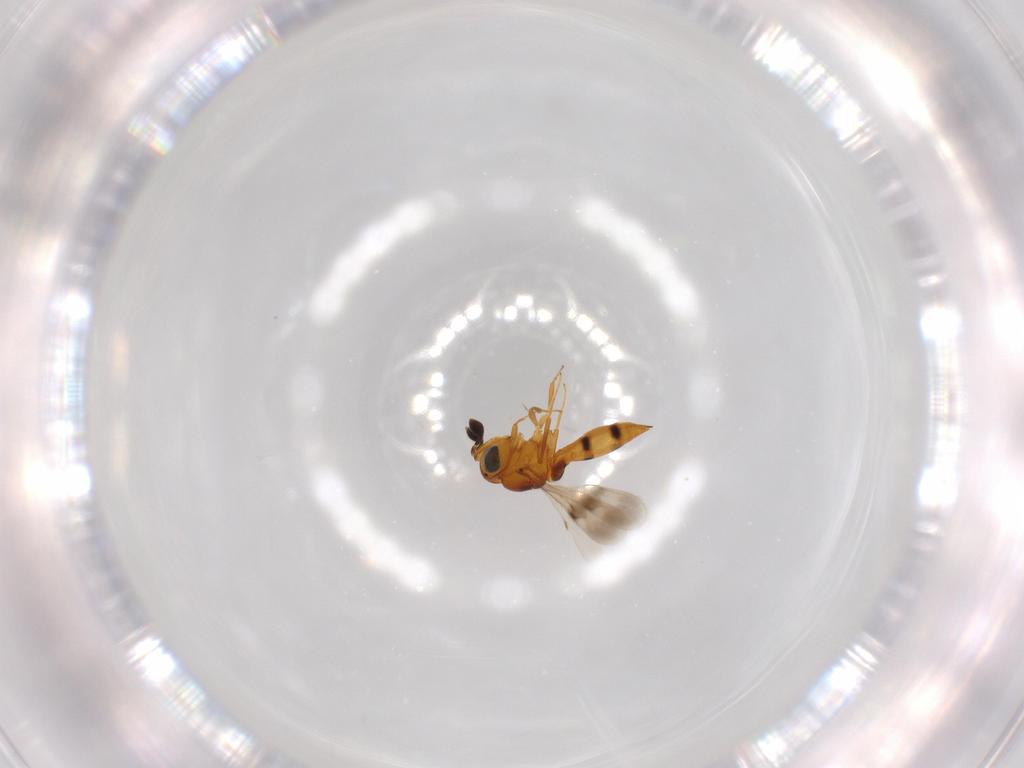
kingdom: Animalia
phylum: Arthropoda
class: Insecta
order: Hymenoptera
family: Scelionidae
